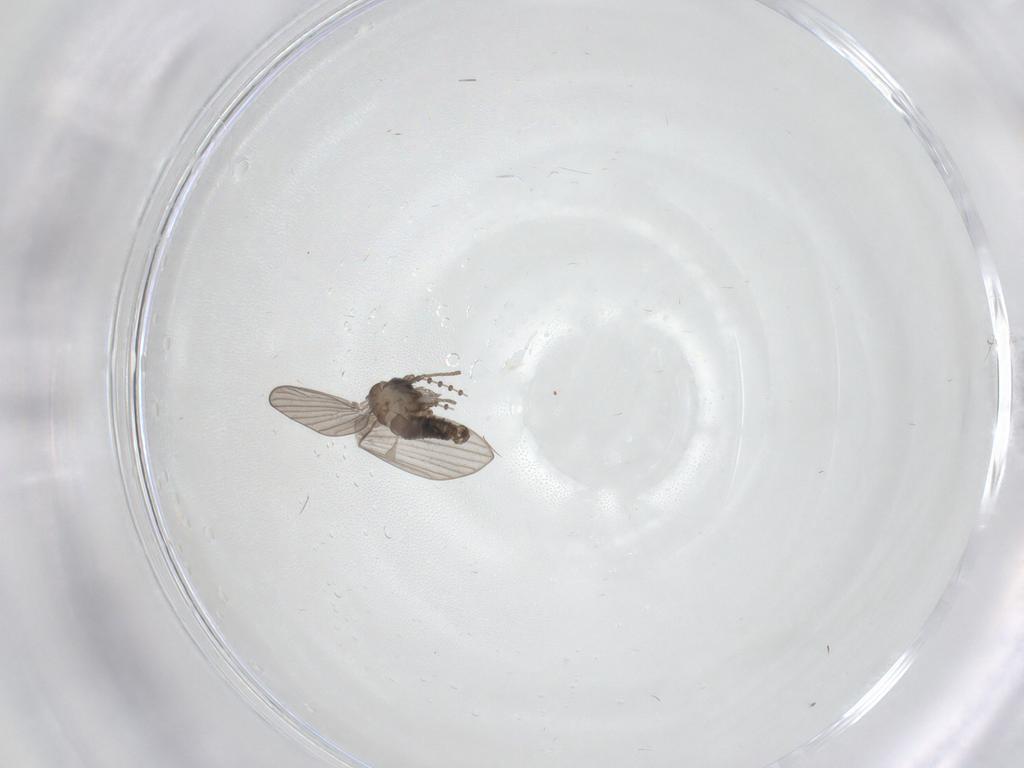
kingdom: Animalia
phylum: Arthropoda
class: Insecta
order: Diptera
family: Psychodidae
